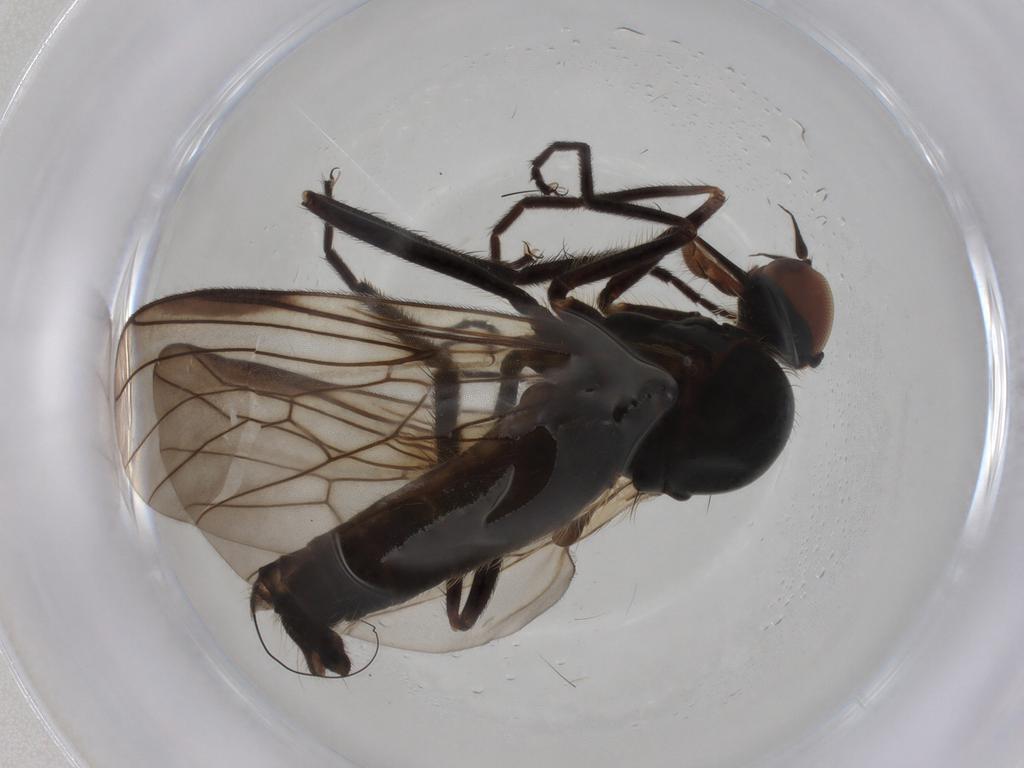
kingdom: Animalia
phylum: Arthropoda
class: Insecta
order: Diptera
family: Empididae
